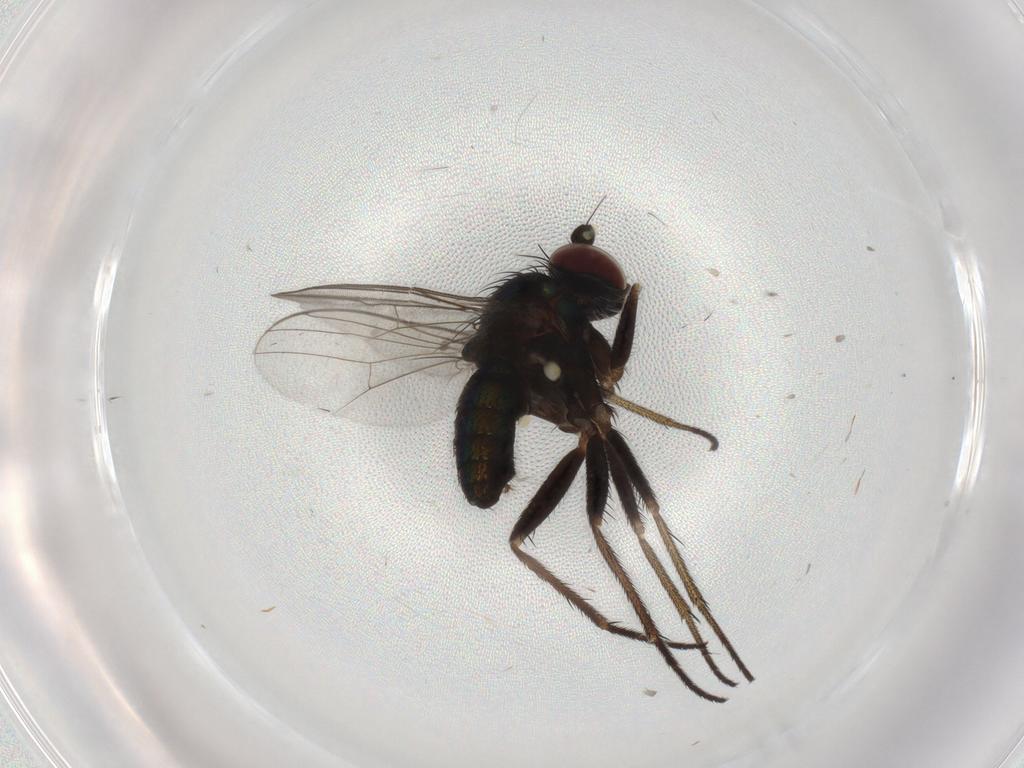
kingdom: Animalia
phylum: Arthropoda
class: Insecta
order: Diptera
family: Dolichopodidae
